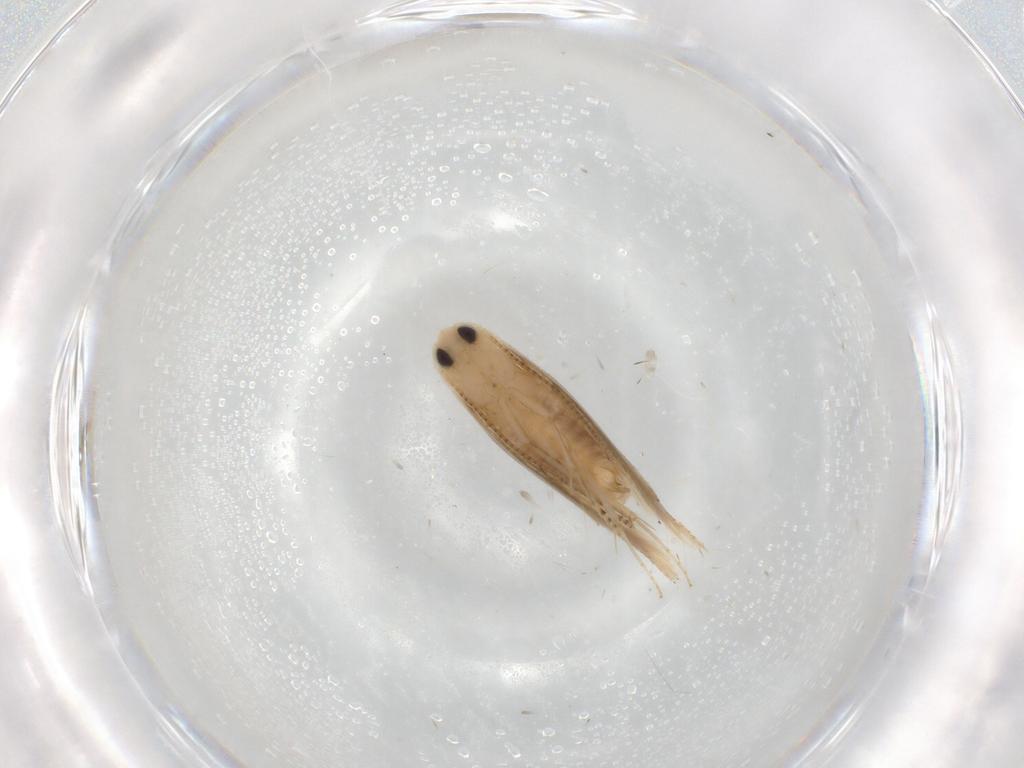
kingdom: Animalia
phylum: Arthropoda
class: Insecta
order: Lepidoptera
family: Bucculatricidae
